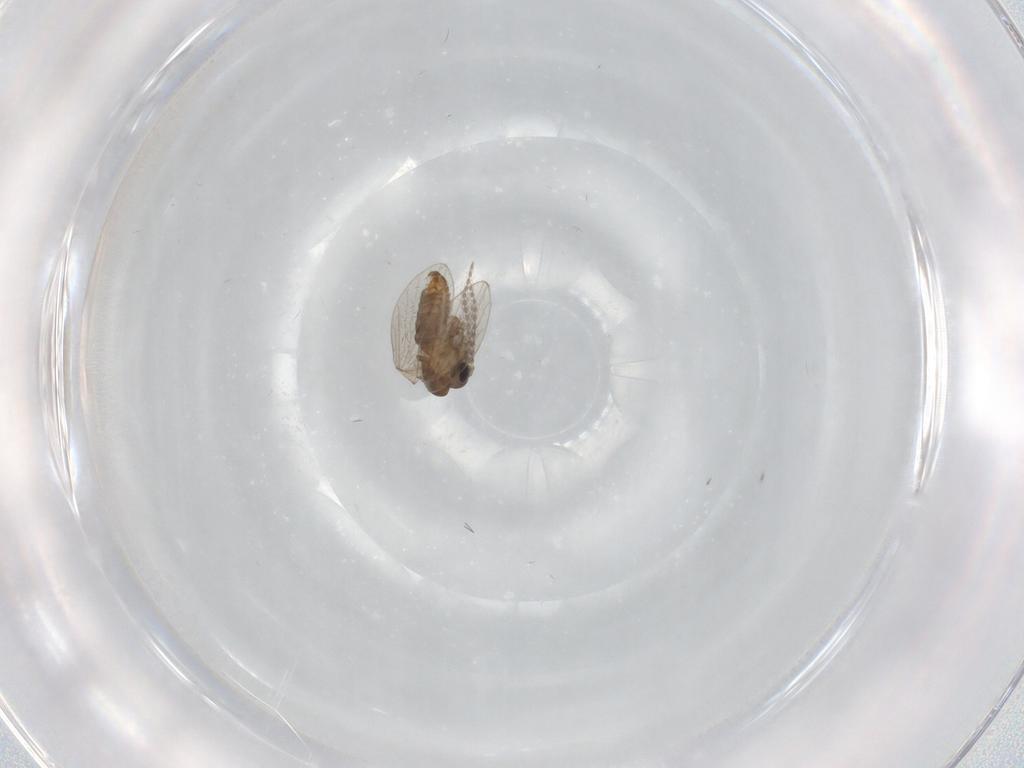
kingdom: Animalia
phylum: Arthropoda
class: Insecta
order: Diptera
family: Cecidomyiidae
